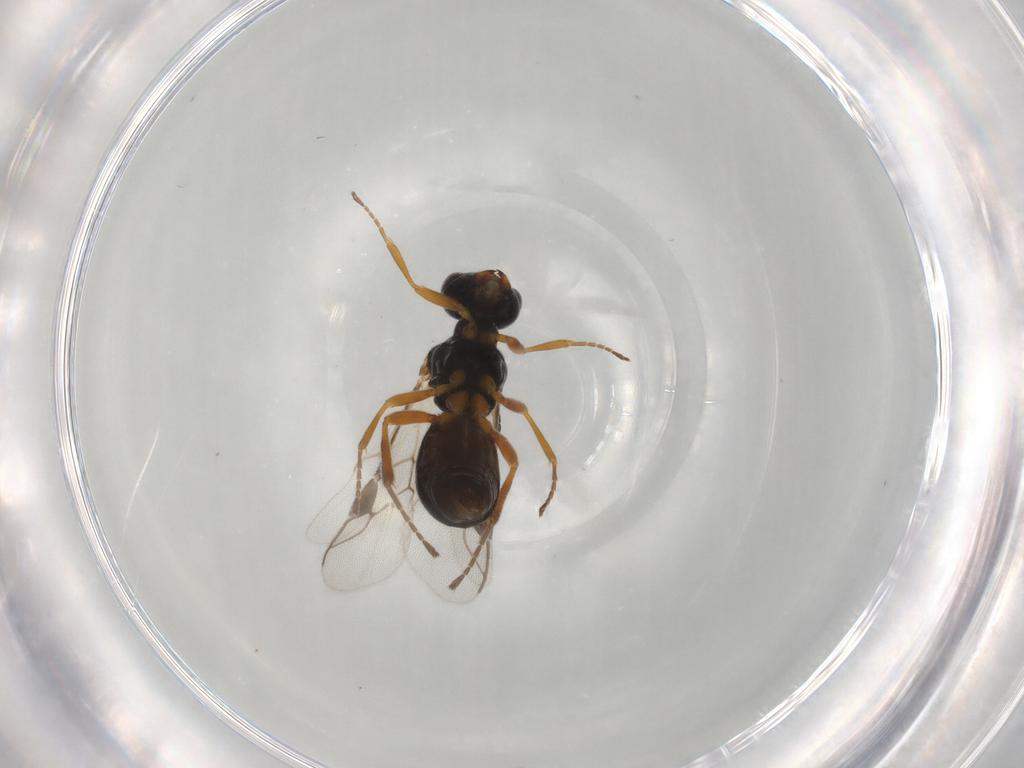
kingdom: Animalia
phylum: Arthropoda
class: Insecta
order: Hymenoptera
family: Braconidae
